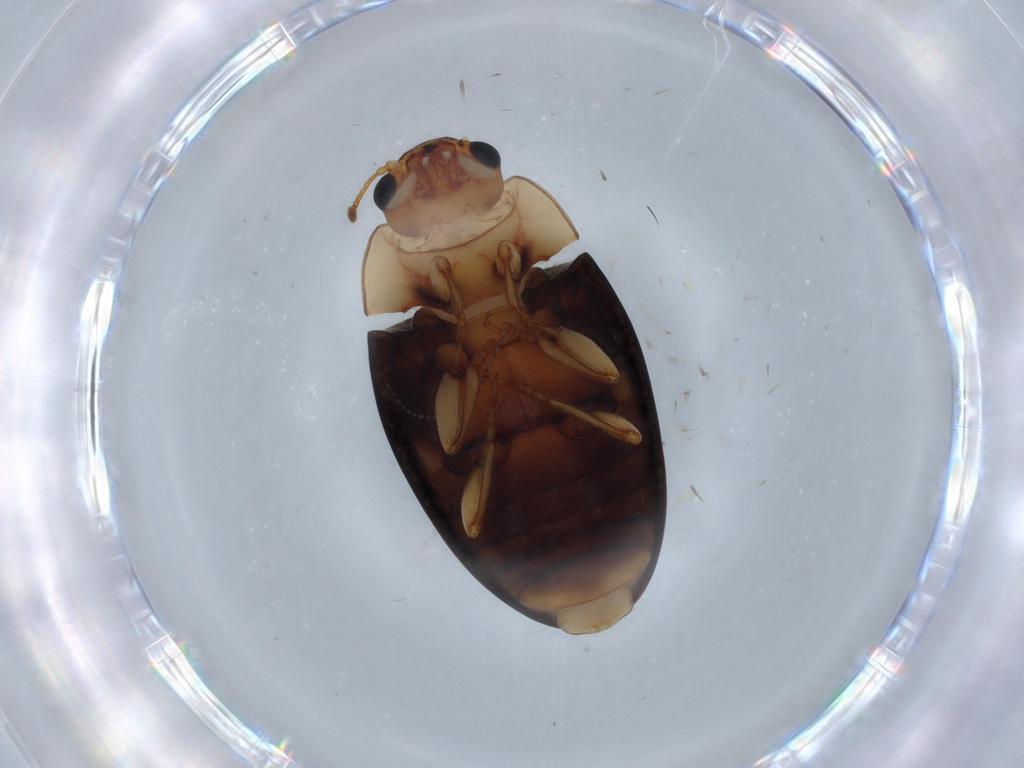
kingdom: Animalia
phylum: Arthropoda
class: Insecta
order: Coleoptera
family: Erotylidae
